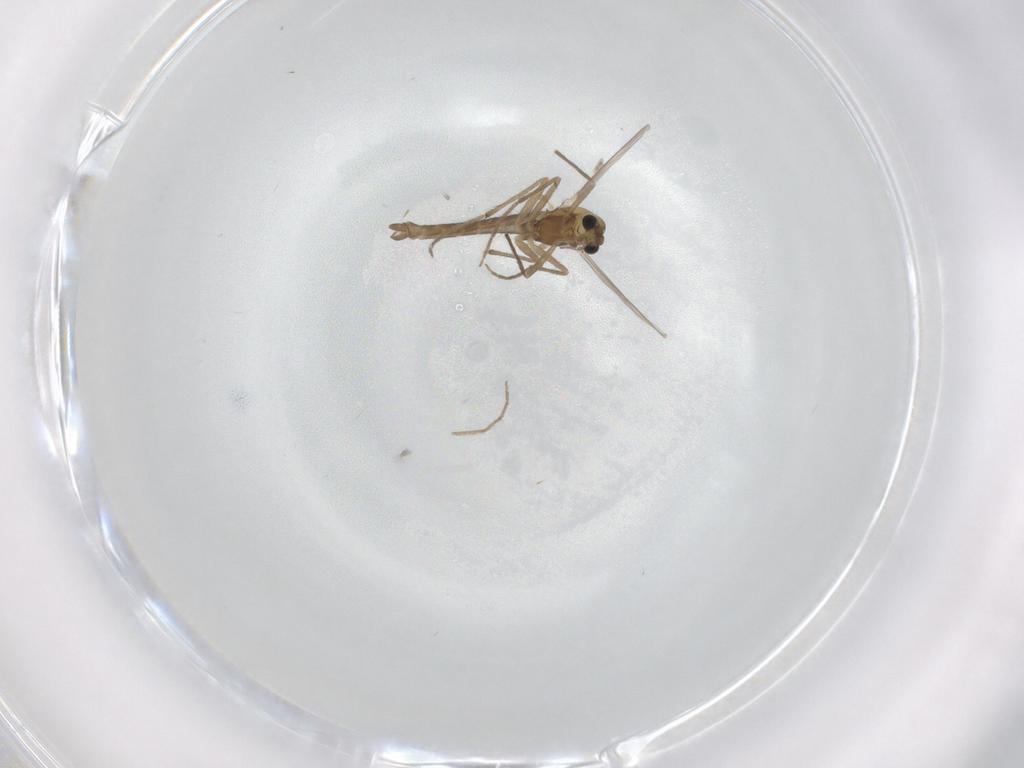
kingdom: Animalia
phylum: Arthropoda
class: Insecta
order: Diptera
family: Chironomidae
